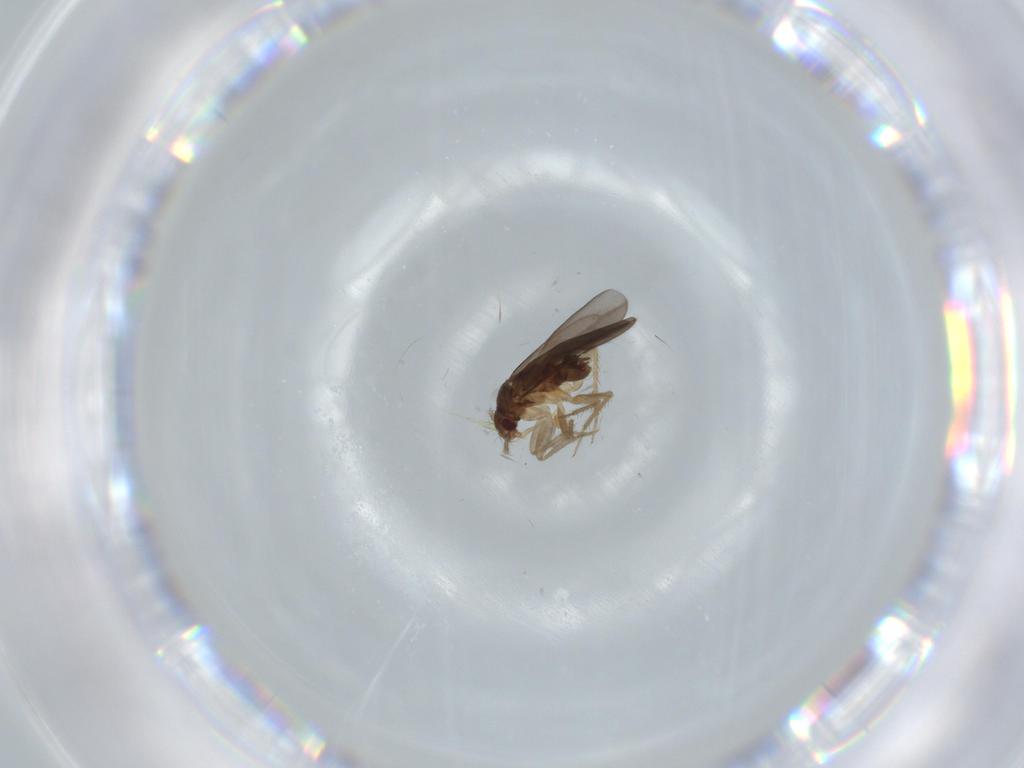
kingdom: Animalia
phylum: Arthropoda
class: Insecta
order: Hemiptera
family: Ceratocombidae
